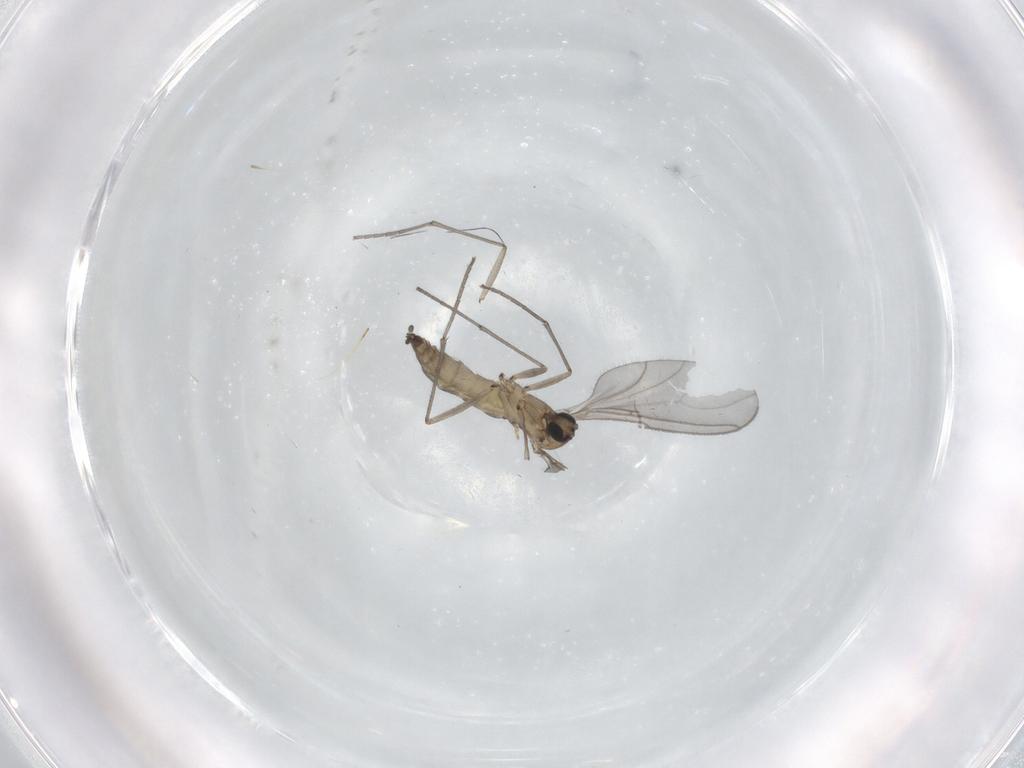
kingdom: Animalia
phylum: Arthropoda
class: Insecta
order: Diptera
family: Sciaridae
